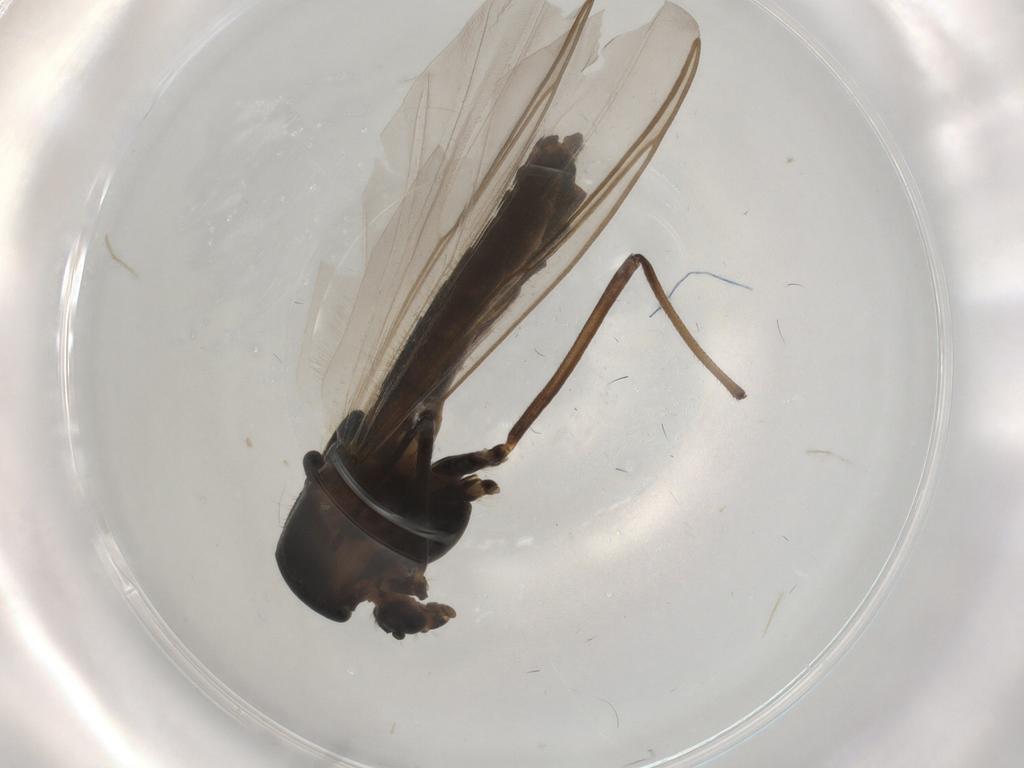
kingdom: Animalia
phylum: Arthropoda
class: Insecta
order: Diptera
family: Chironomidae
